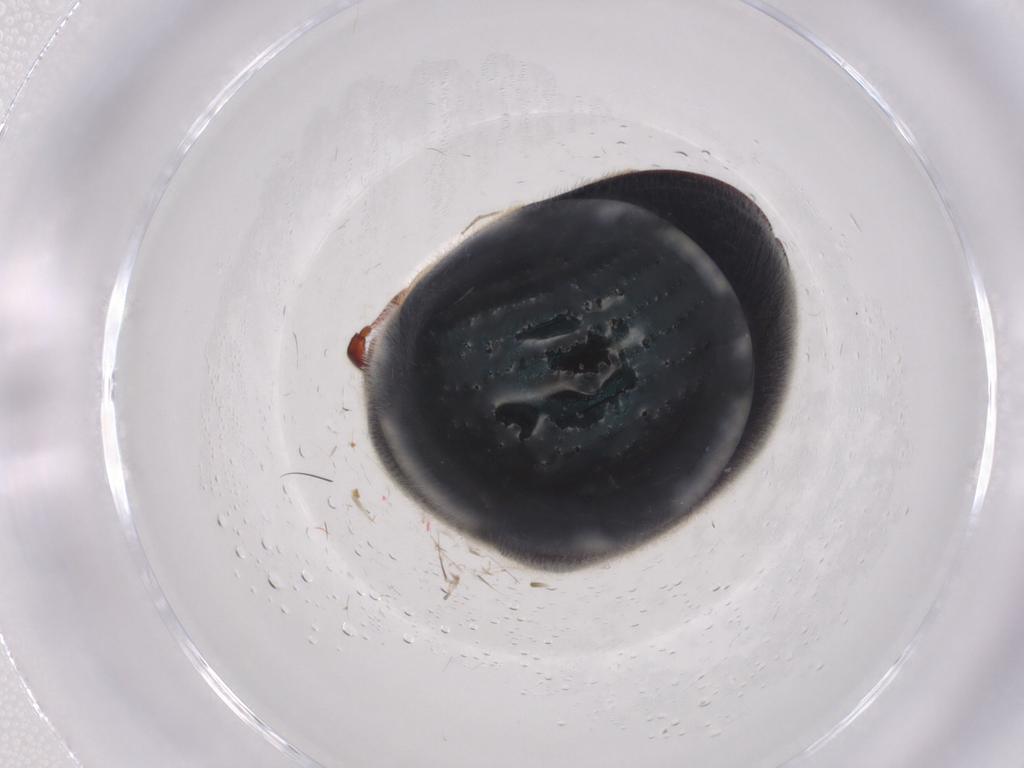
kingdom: Animalia
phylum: Arthropoda
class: Insecta
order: Coleoptera
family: Ptinidae
